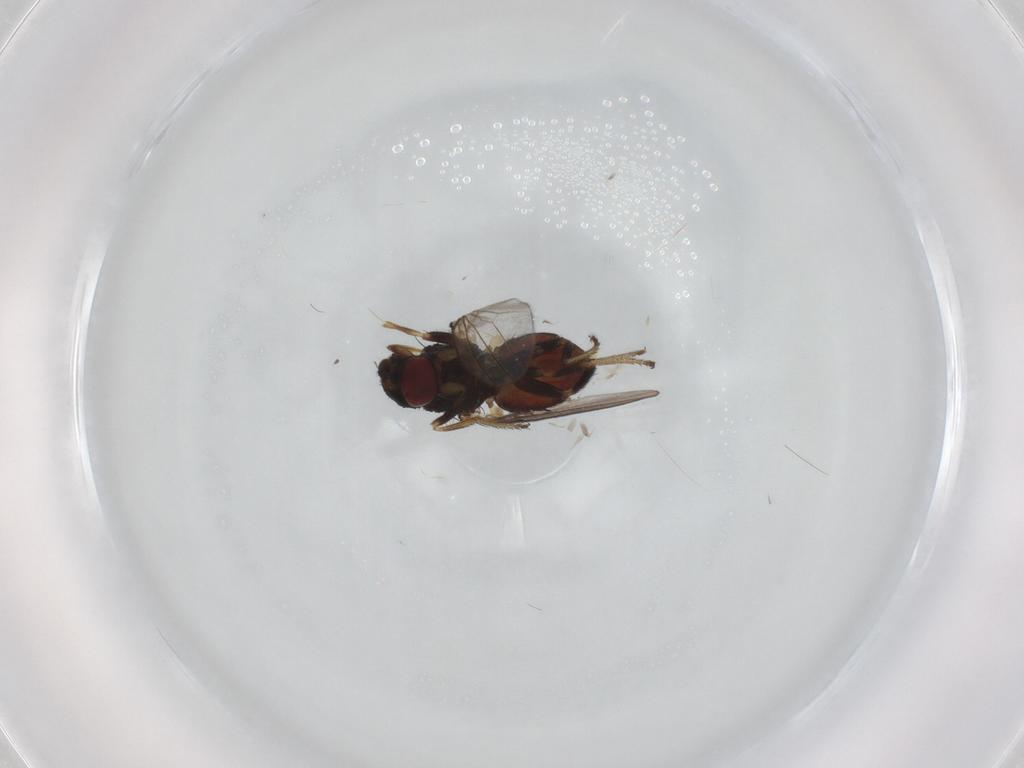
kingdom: Animalia
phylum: Arthropoda
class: Insecta
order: Diptera
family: Milichiidae
